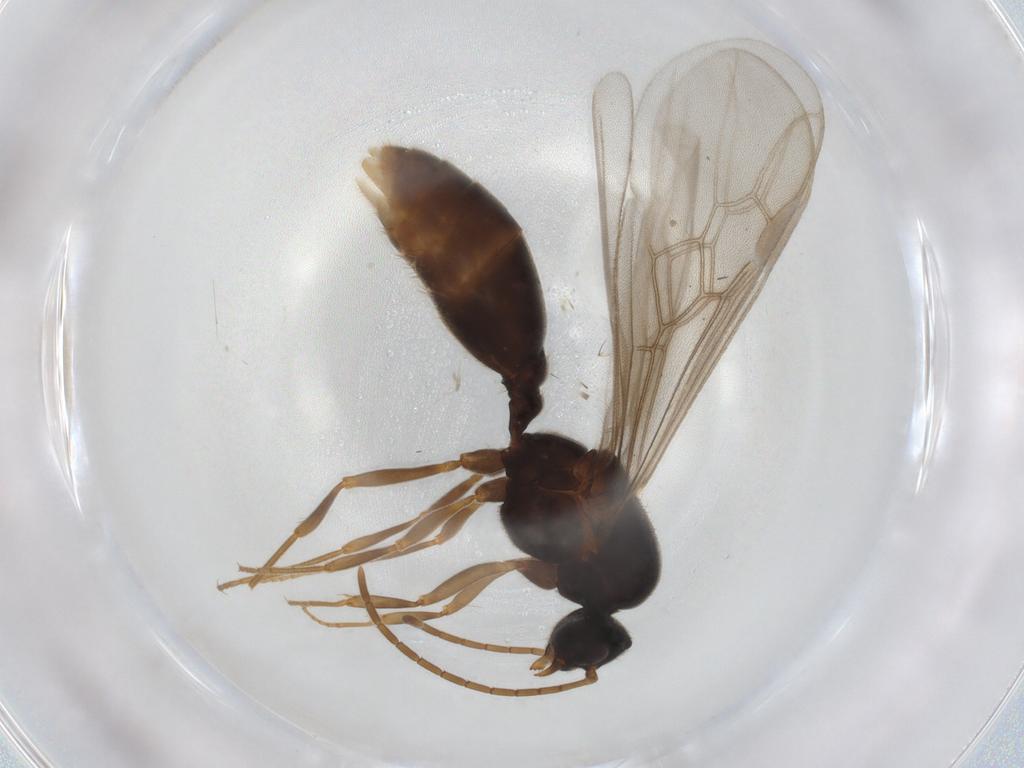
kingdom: Animalia
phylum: Arthropoda
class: Insecta
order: Hymenoptera
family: Formicidae
